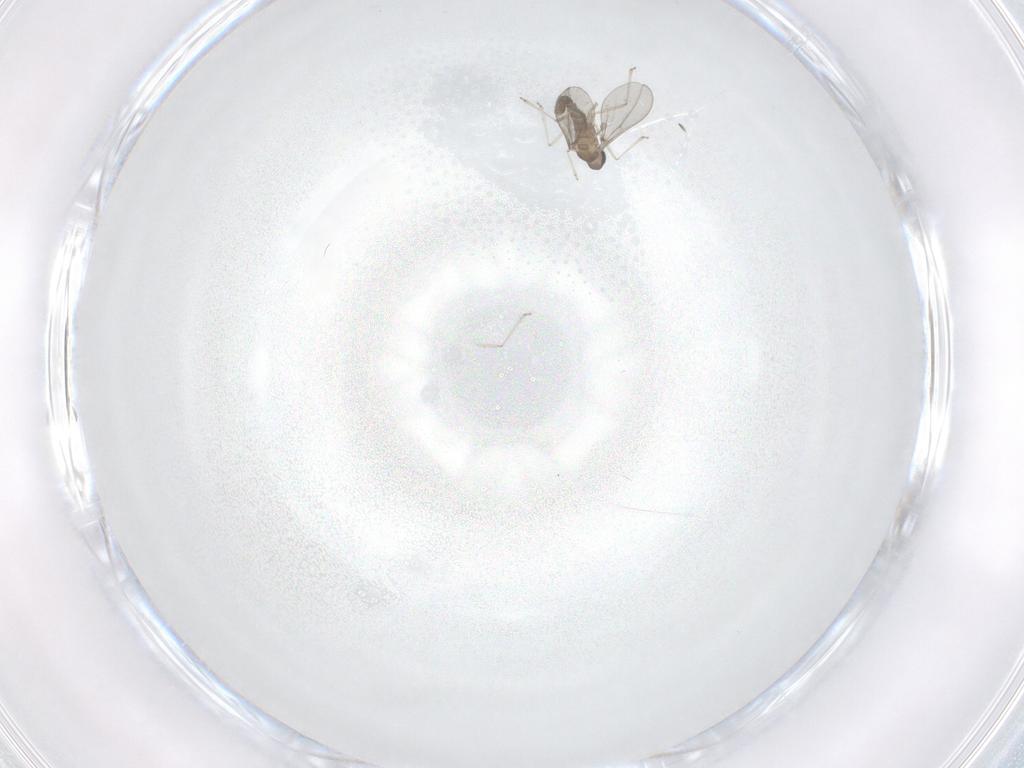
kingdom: Animalia
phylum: Arthropoda
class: Insecta
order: Diptera
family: Cecidomyiidae
